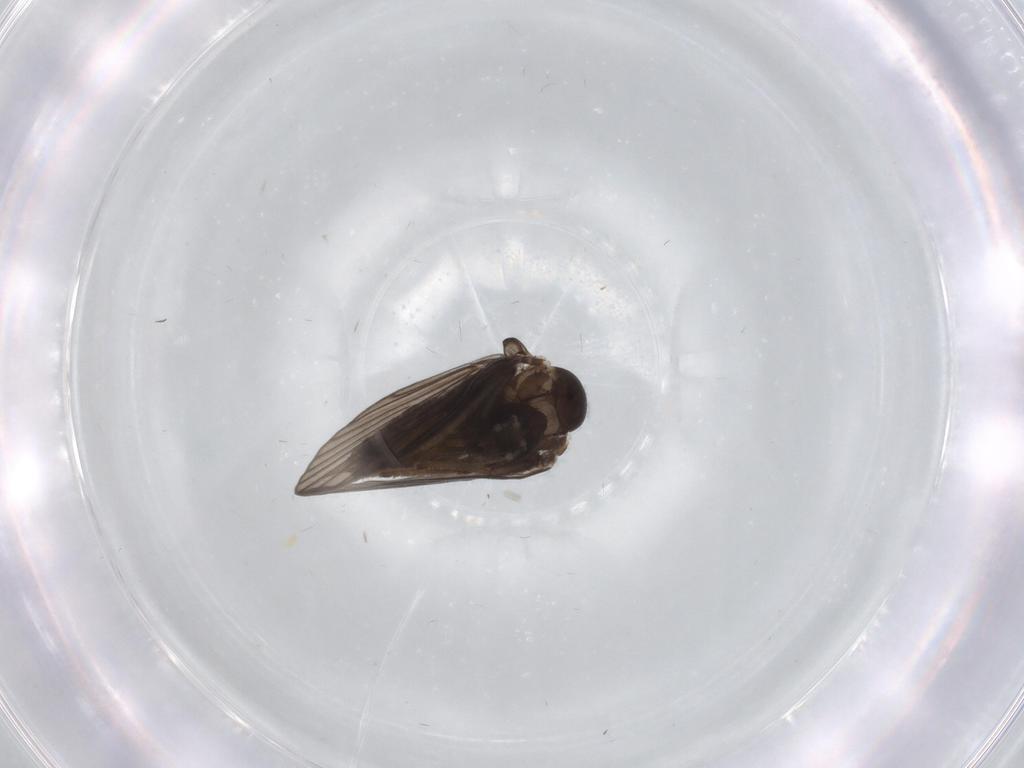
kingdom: Animalia
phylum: Arthropoda
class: Insecta
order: Diptera
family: Psychodidae
